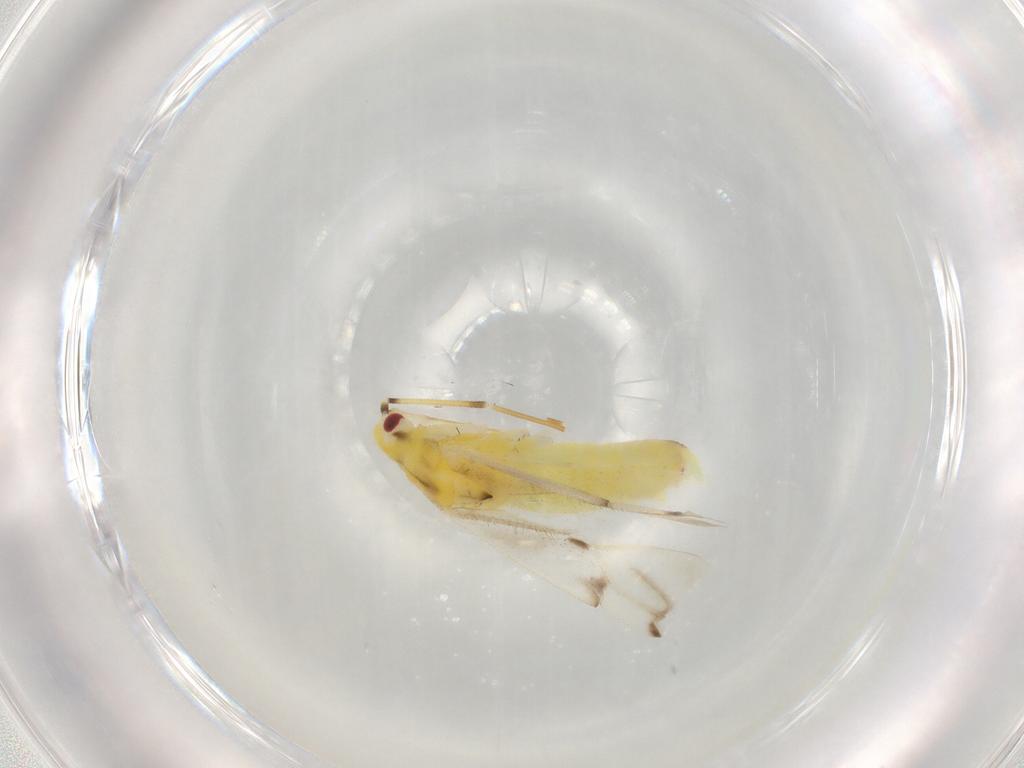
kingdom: Animalia
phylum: Arthropoda
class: Insecta
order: Hemiptera
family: Miridae
